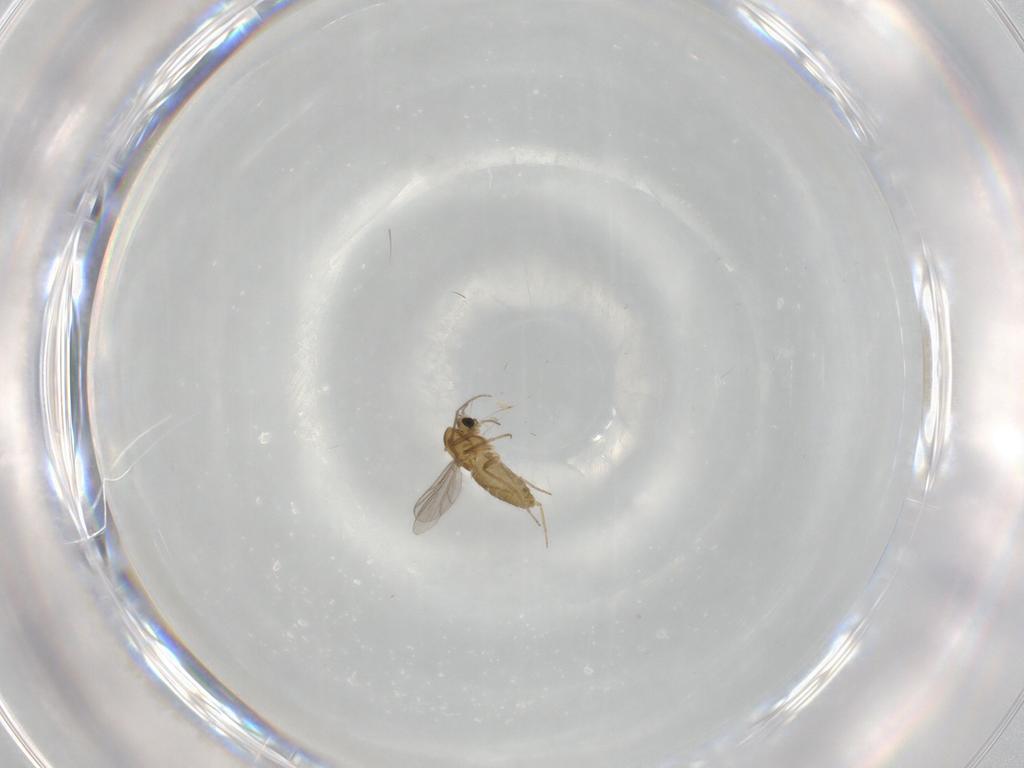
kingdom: Animalia
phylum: Arthropoda
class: Insecta
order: Diptera
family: Chironomidae
